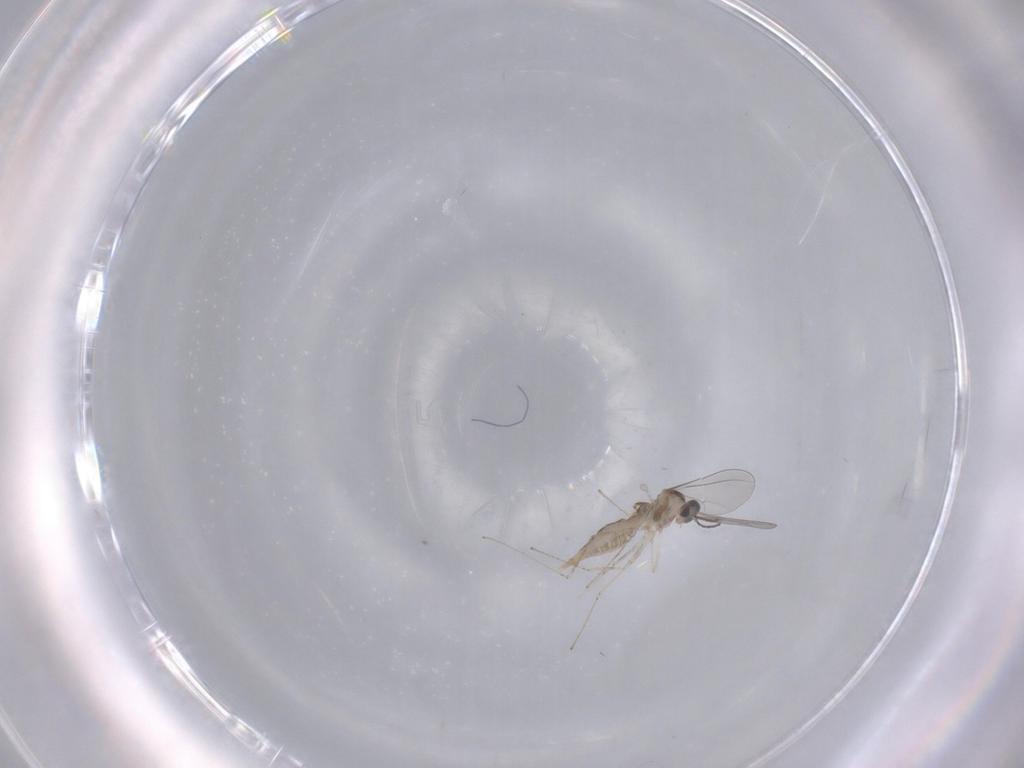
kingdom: Animalia
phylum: Arthropoda
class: Insecta
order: Diptera
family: Cecidomyiidae
